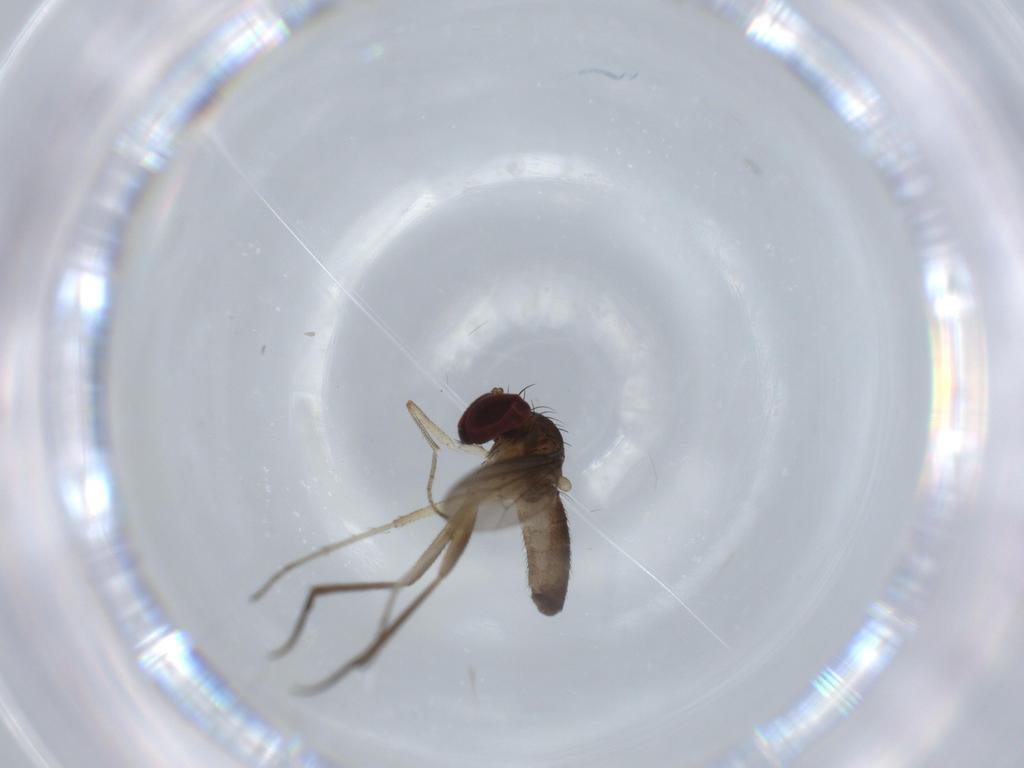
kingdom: Animalia
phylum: Arthropoda
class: Insecta
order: Diptera
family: Dolichopodidae
